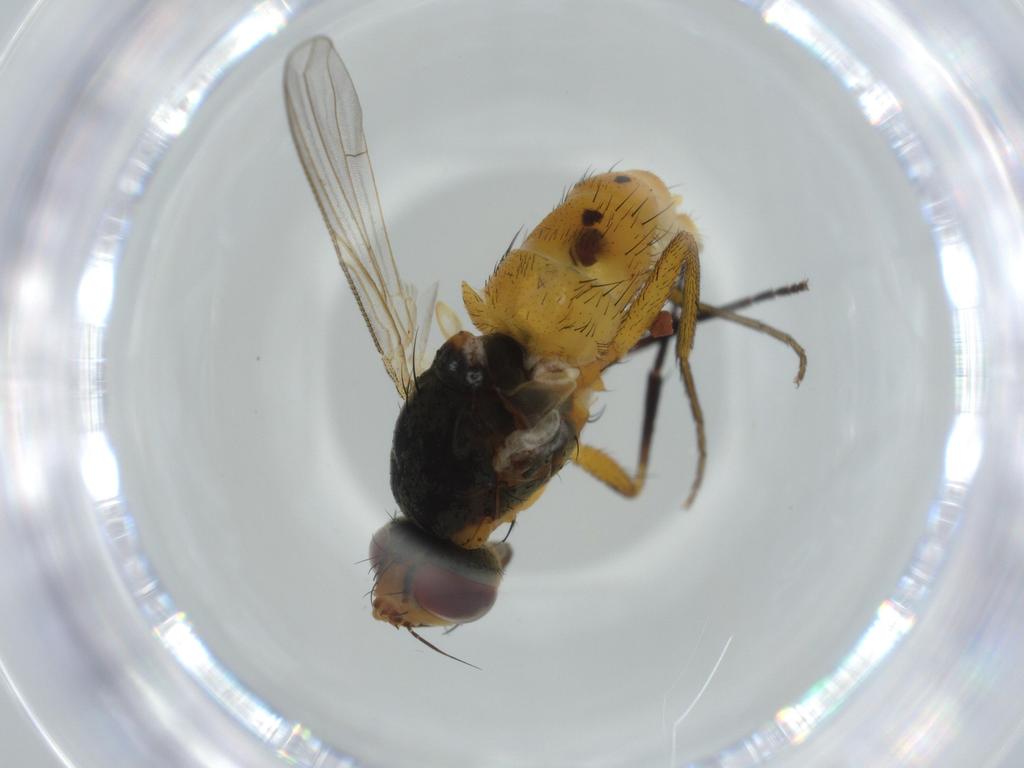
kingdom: Animalia
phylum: Arthropoda
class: Insecta
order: Diptera
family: Muscidae
